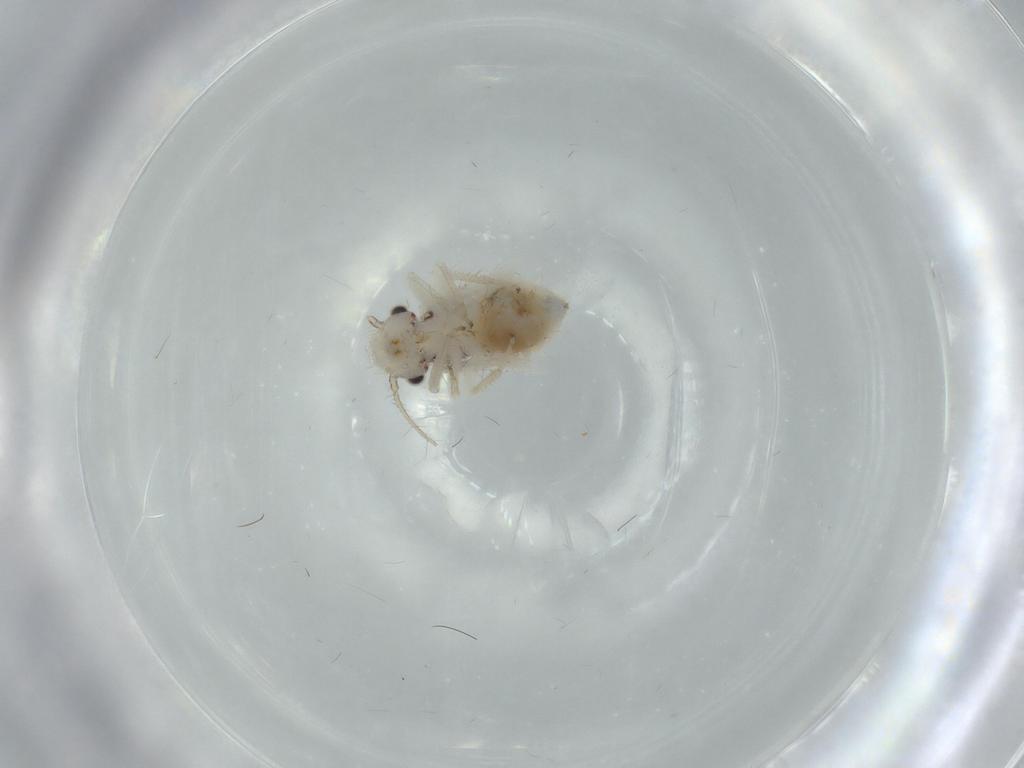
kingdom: Animalia
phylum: Arthropoda
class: Insecta
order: Psocodea
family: Pseudocaeciliidae
